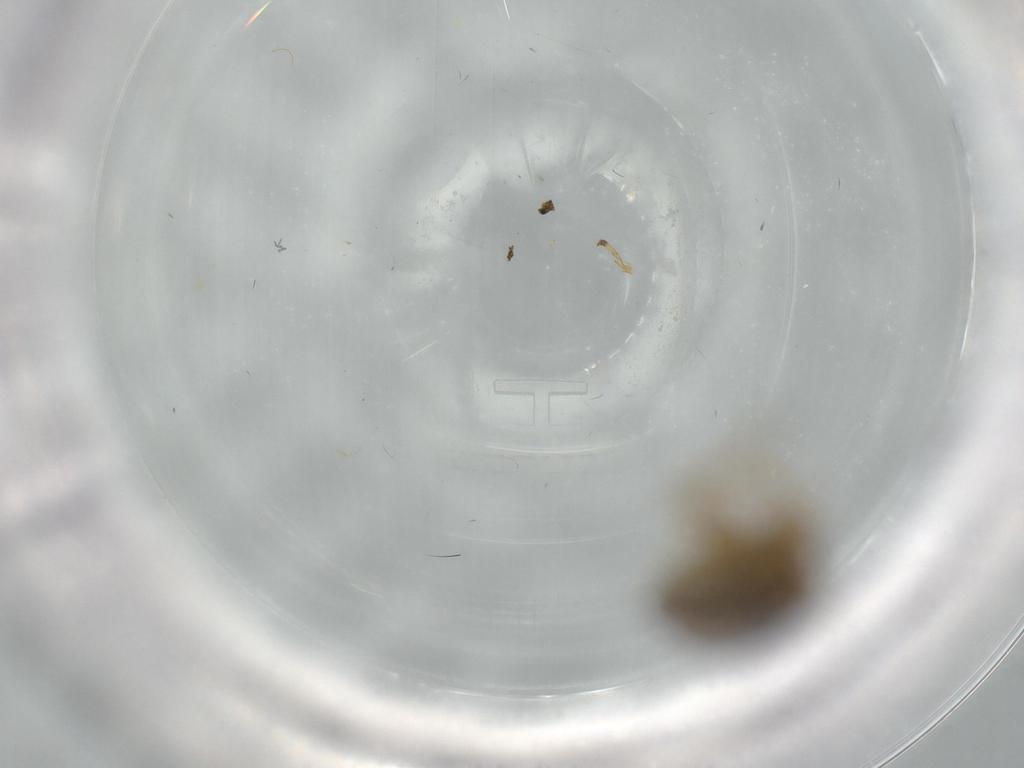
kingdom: Animalia
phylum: Arthropoda
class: Insecta
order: Hemiptera
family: Cicadellidae
